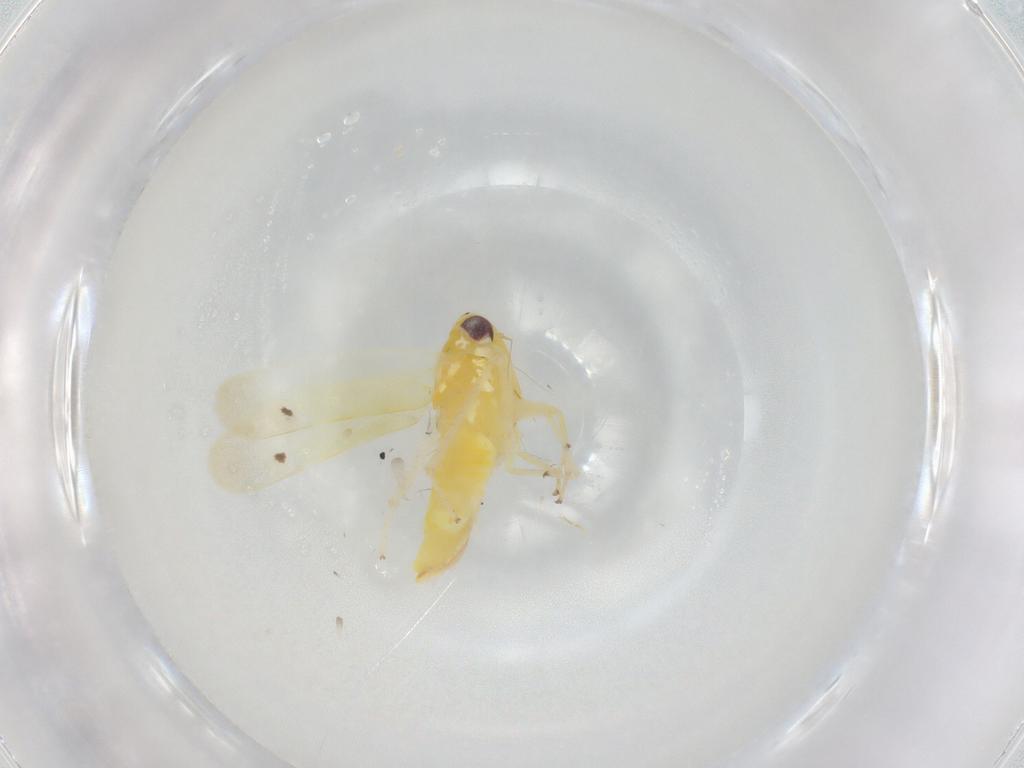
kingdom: Animalia
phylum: Arthropoda
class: Insecta
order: Hemiptera
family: Cicadellidae
